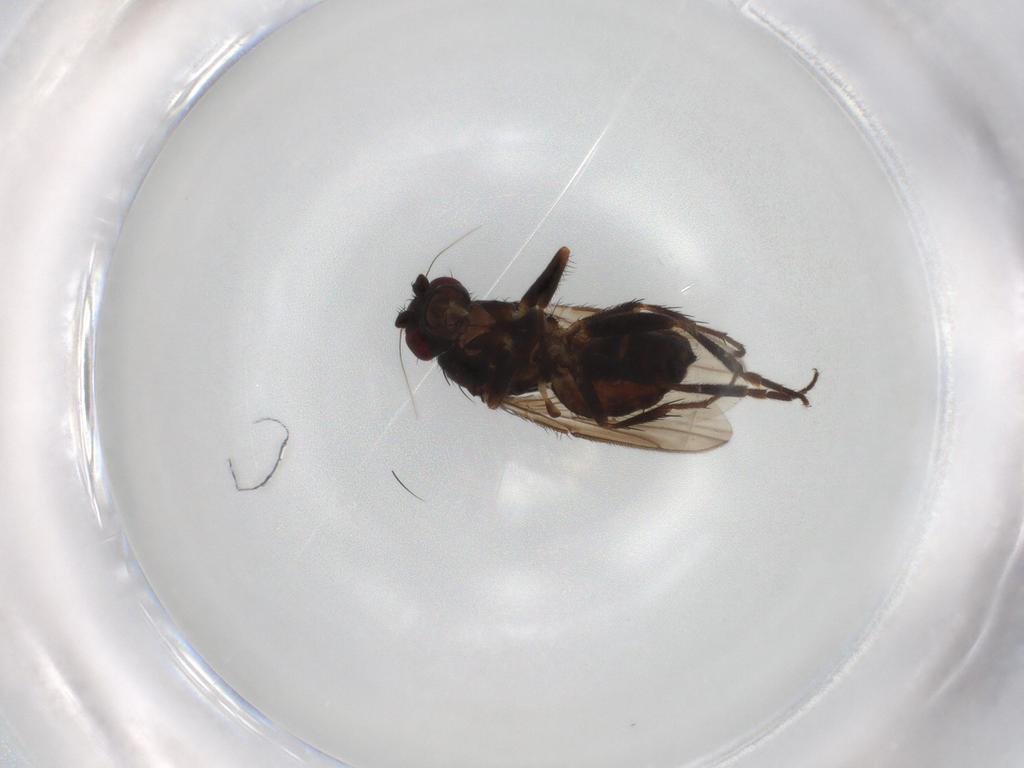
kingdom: Animalia
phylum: Arthropoda
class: Insecta
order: Diptera
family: Sphaeroceridae
